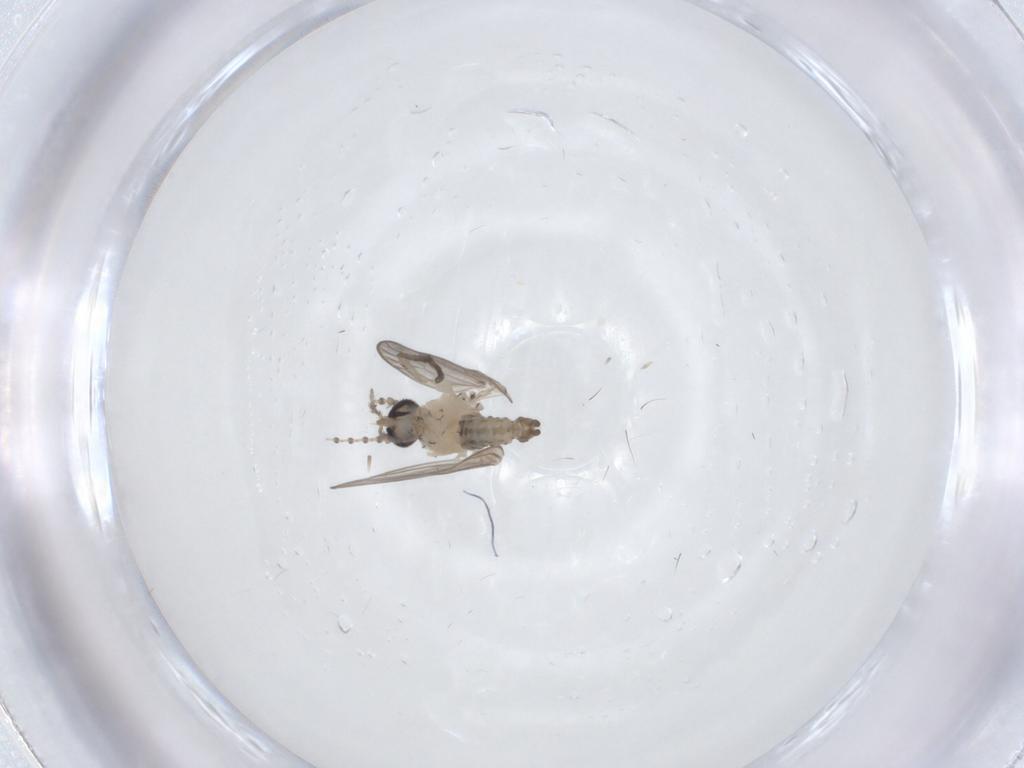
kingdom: Animalia
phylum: Arthropoda
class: Insecta
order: Diptera
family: Psychodidae
